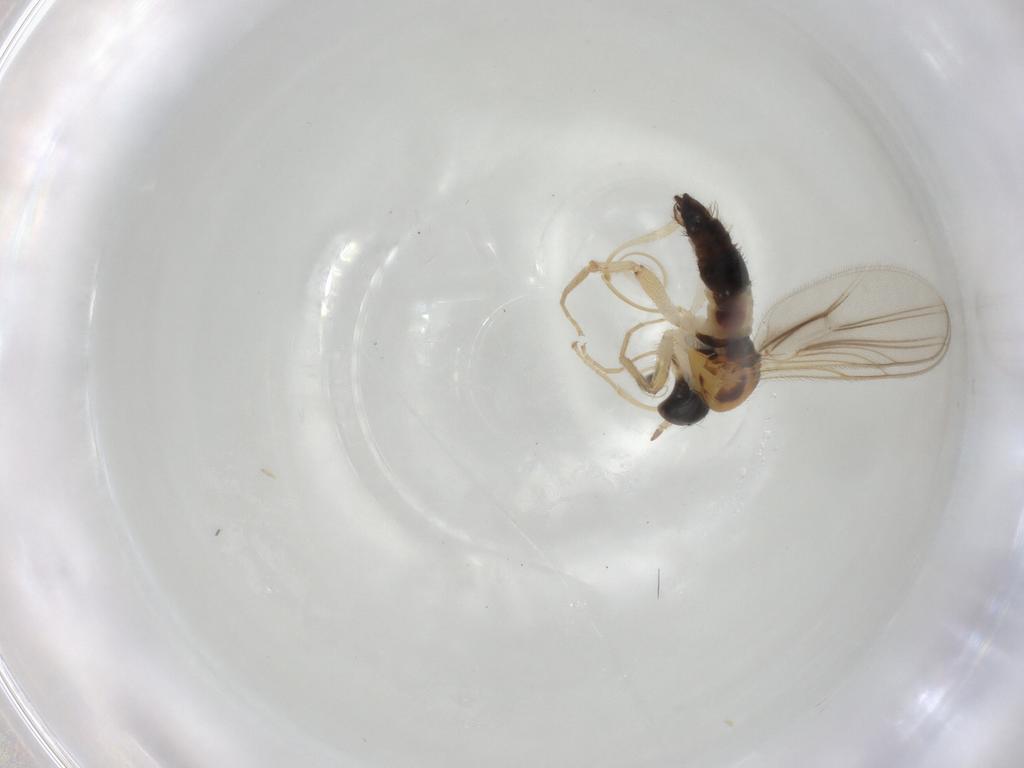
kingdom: Animalia
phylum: Arthropoda
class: Insecta
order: Diptera
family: Hybotidae
